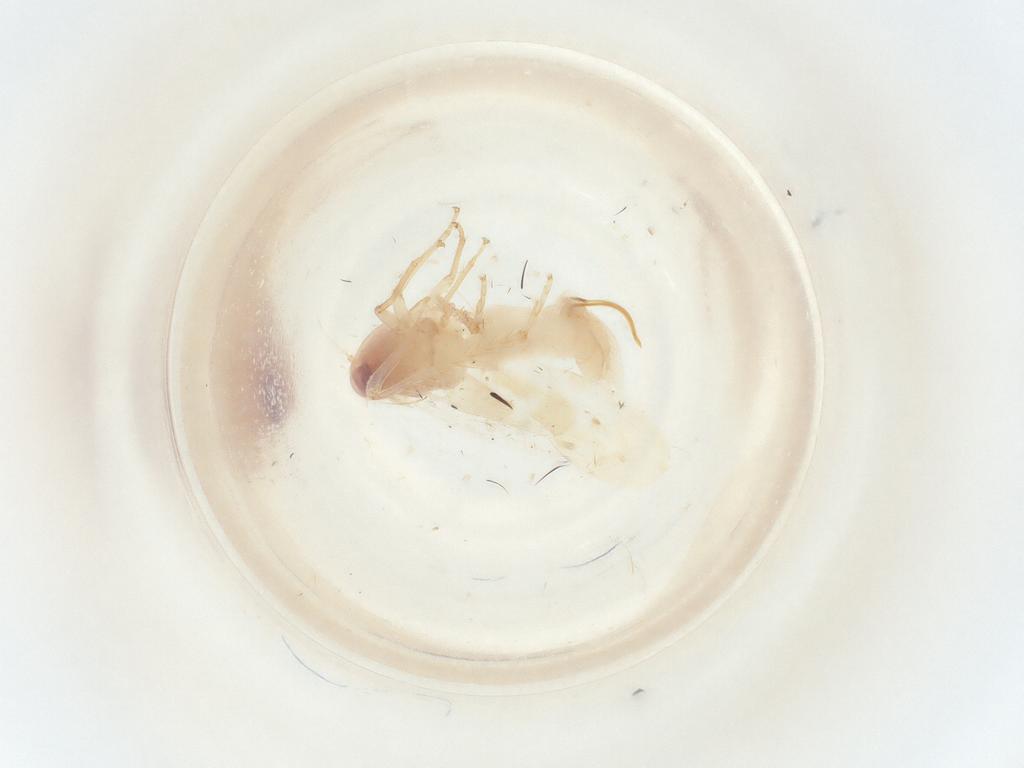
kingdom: Animalia
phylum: Arthropoda
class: Insecta
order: Hemiptera
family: Cicadellidae
